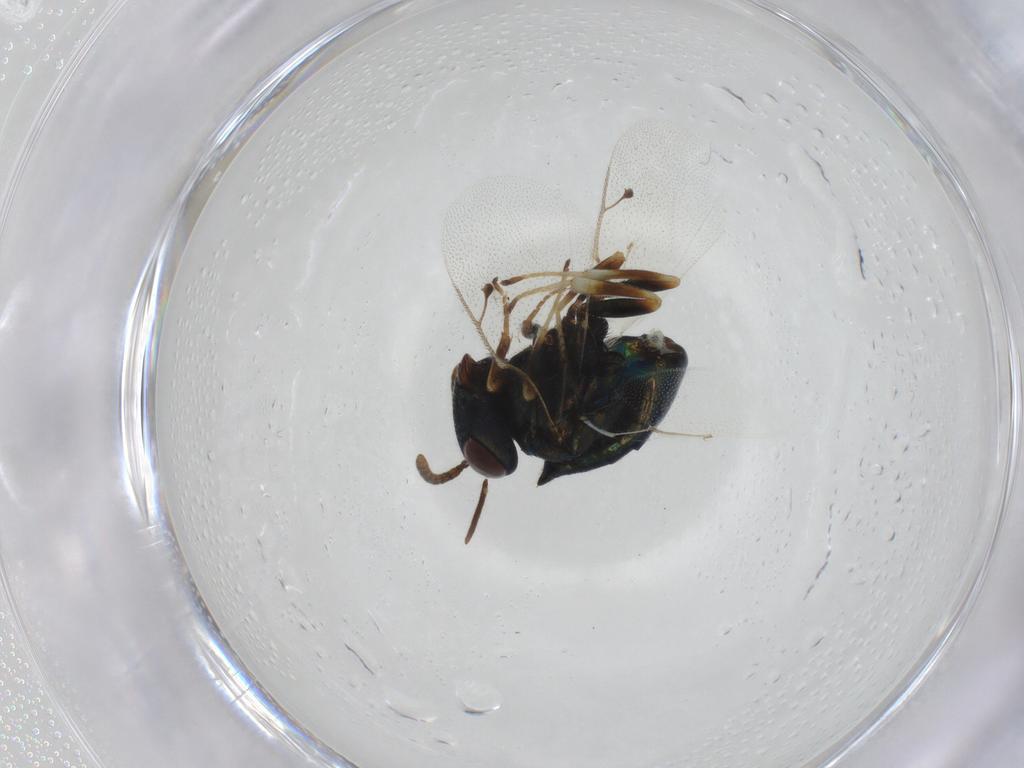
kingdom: Animalia
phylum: Arthropoda
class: Insecta
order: Hymenoptera
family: Pteromalidae
